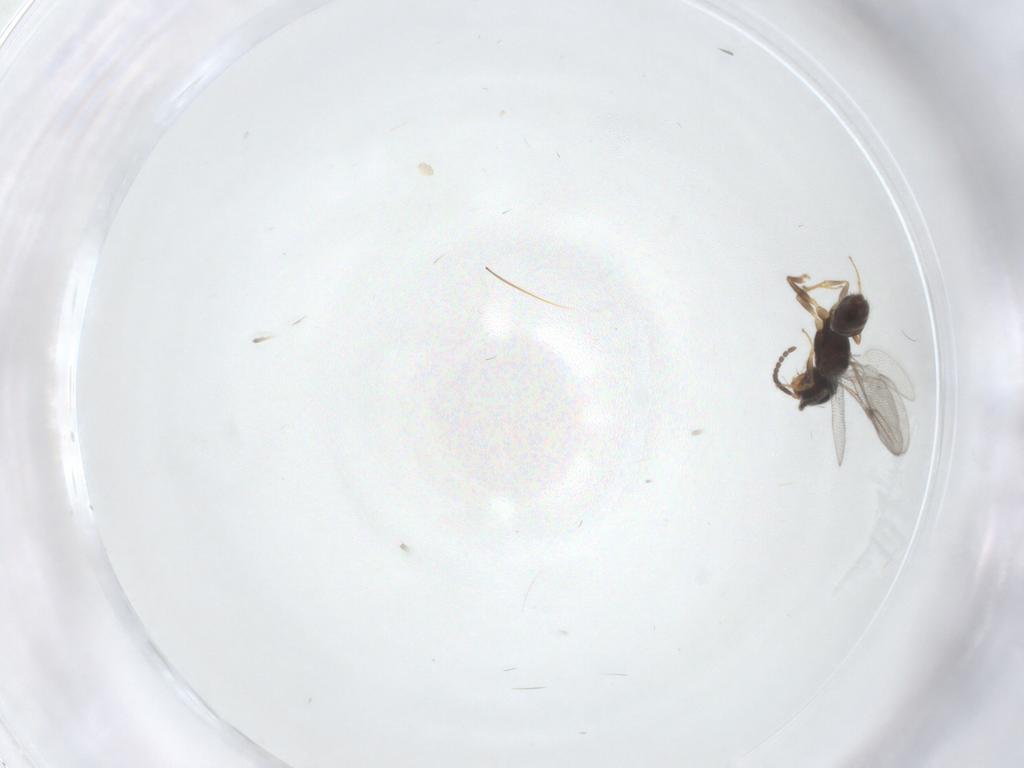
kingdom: Animalia
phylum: Arthropoda
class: Insecta
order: Hymenoptera
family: Bethylidae
